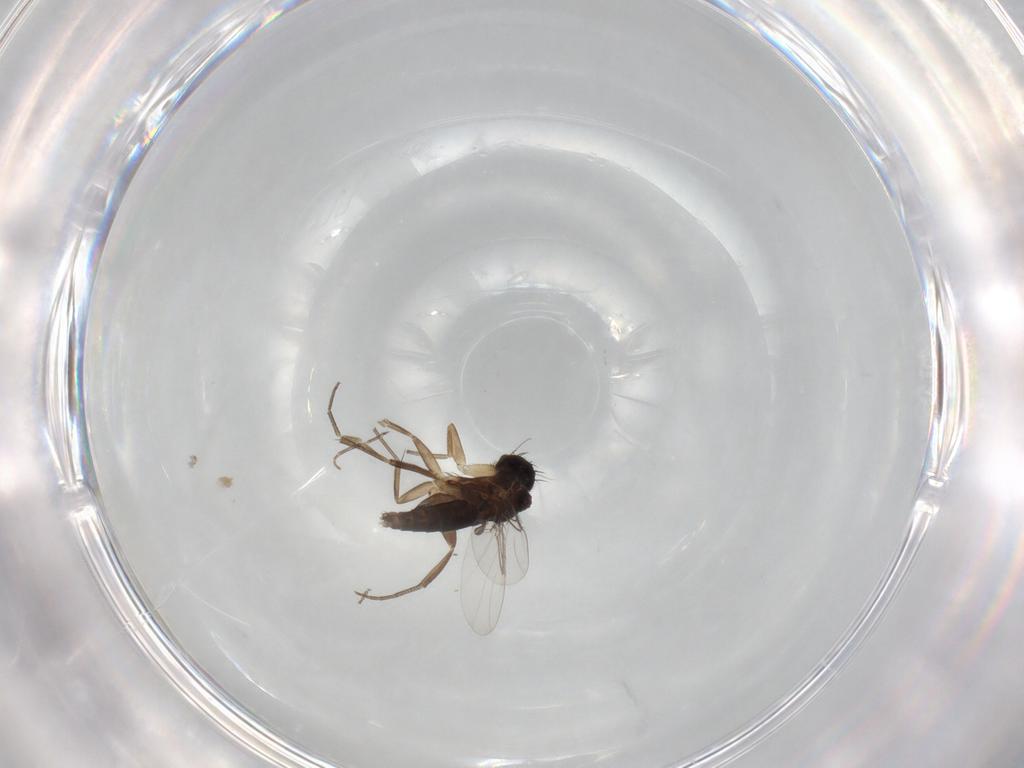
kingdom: Animalia
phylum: Arthropoda
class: Insecta
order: Diptera
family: Phoridae
